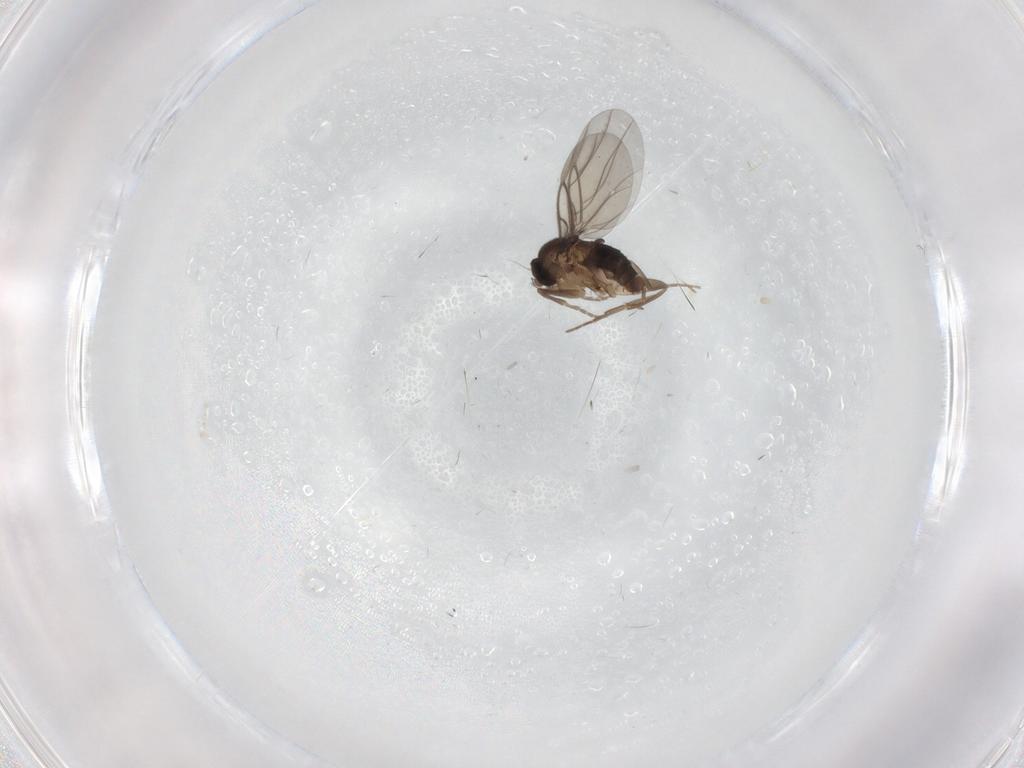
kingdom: Animalia
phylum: Arthropoda
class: Insecta
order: Diptera
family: Phoridae
